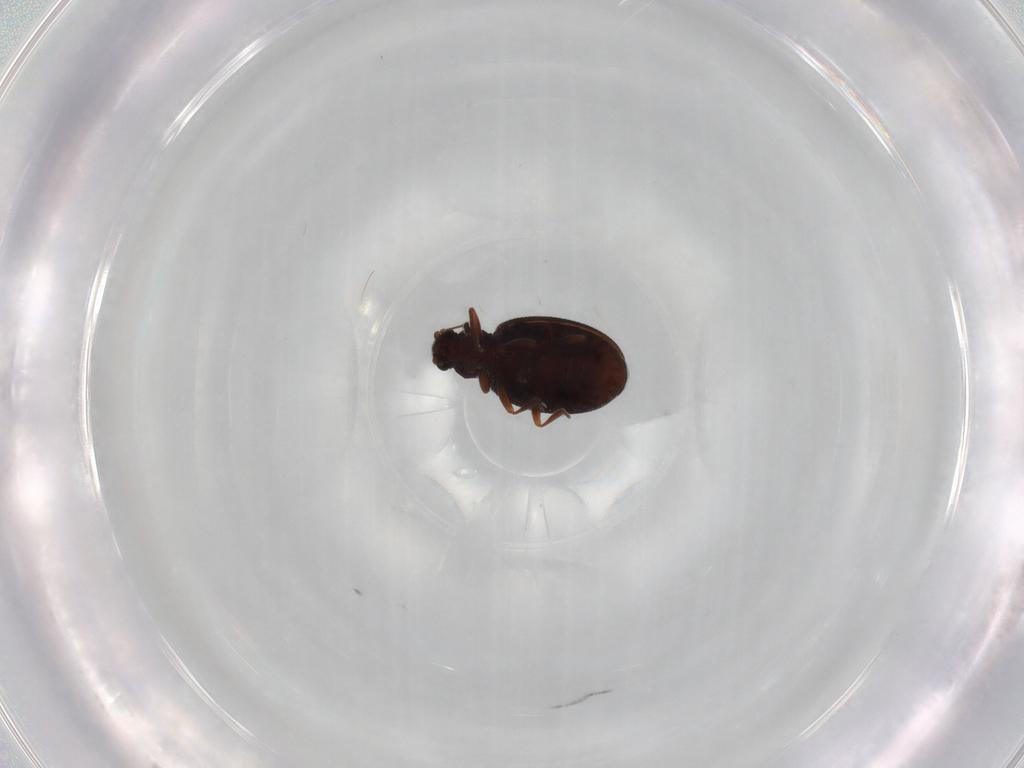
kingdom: Animalia
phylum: Arthropoda
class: Insecta
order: Coleoptera
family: Latridiidae
